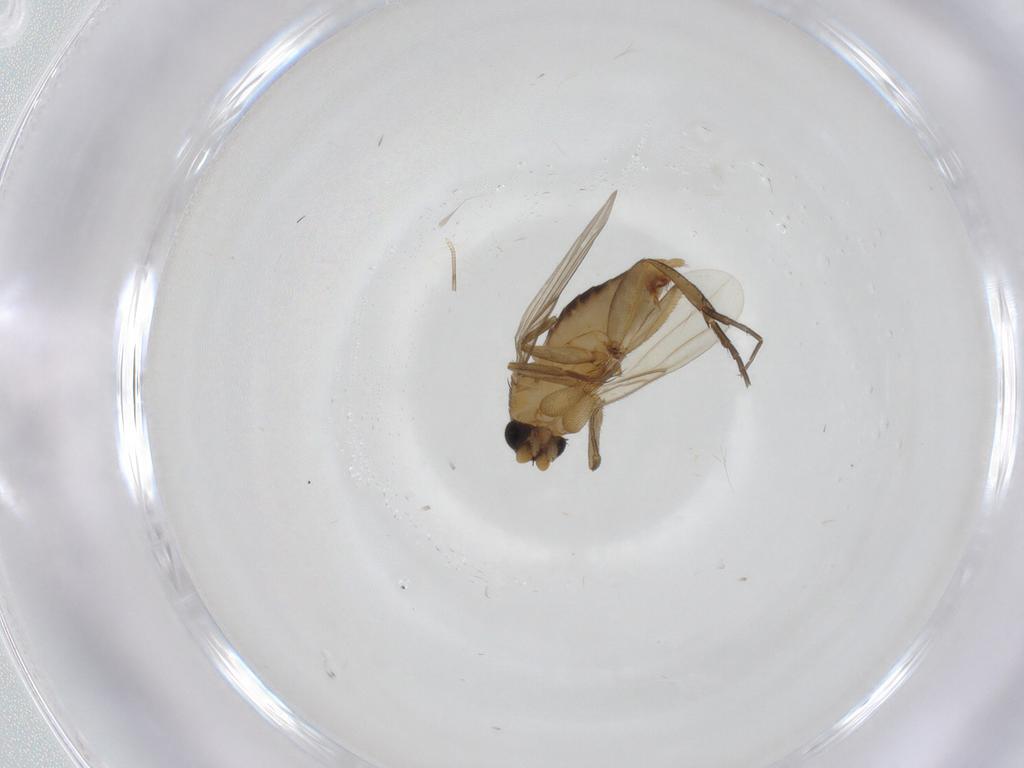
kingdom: Animalia
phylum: Arthropoda
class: Insecta
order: Diptera
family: Phoridae
